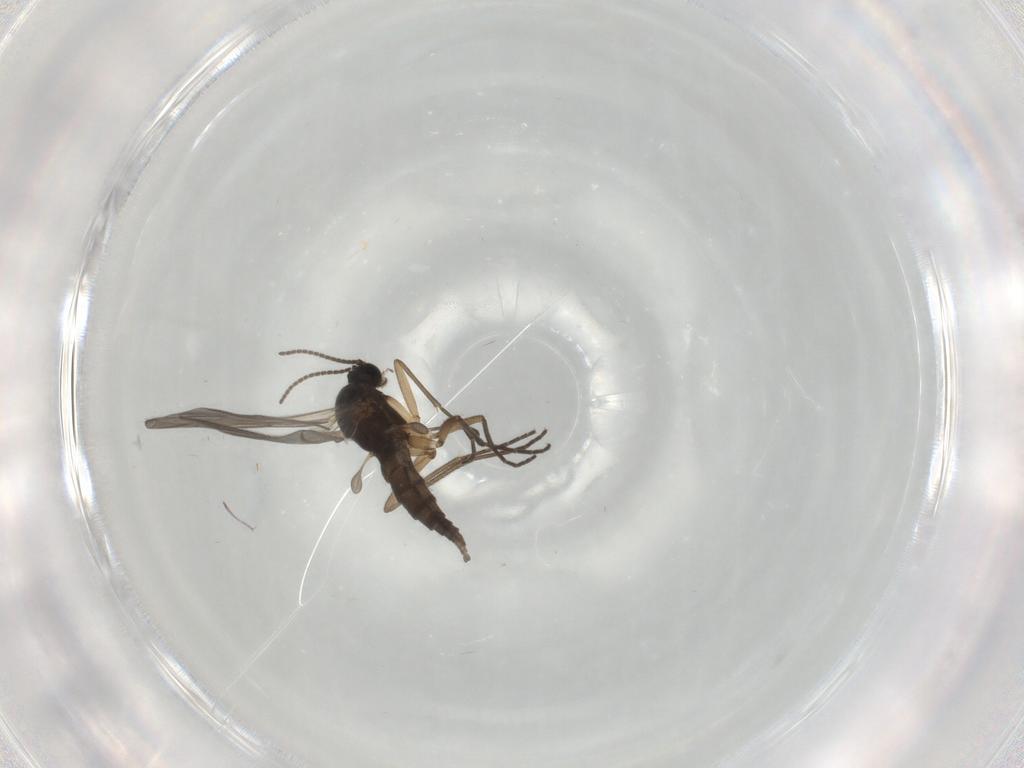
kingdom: Animalia
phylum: Arthropoda
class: Insecta
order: Diptera
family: Sciaridae
